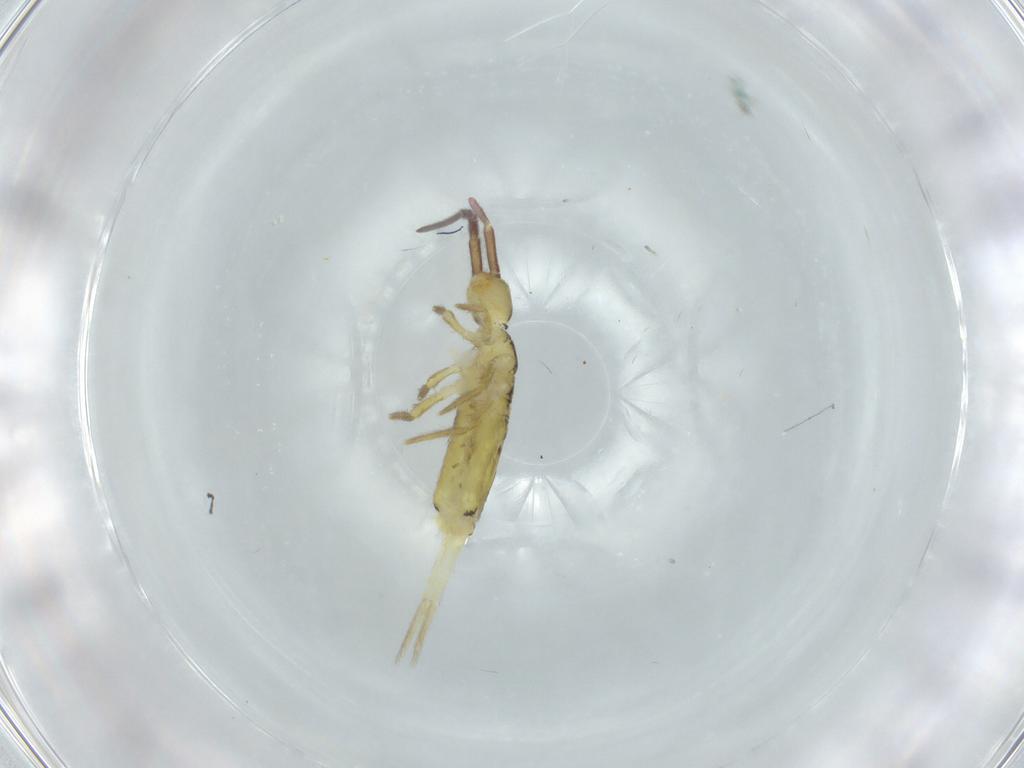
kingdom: Animalia
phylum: Arthropoda
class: Collembola
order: Entomobryomorpha
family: Entomobryidae
